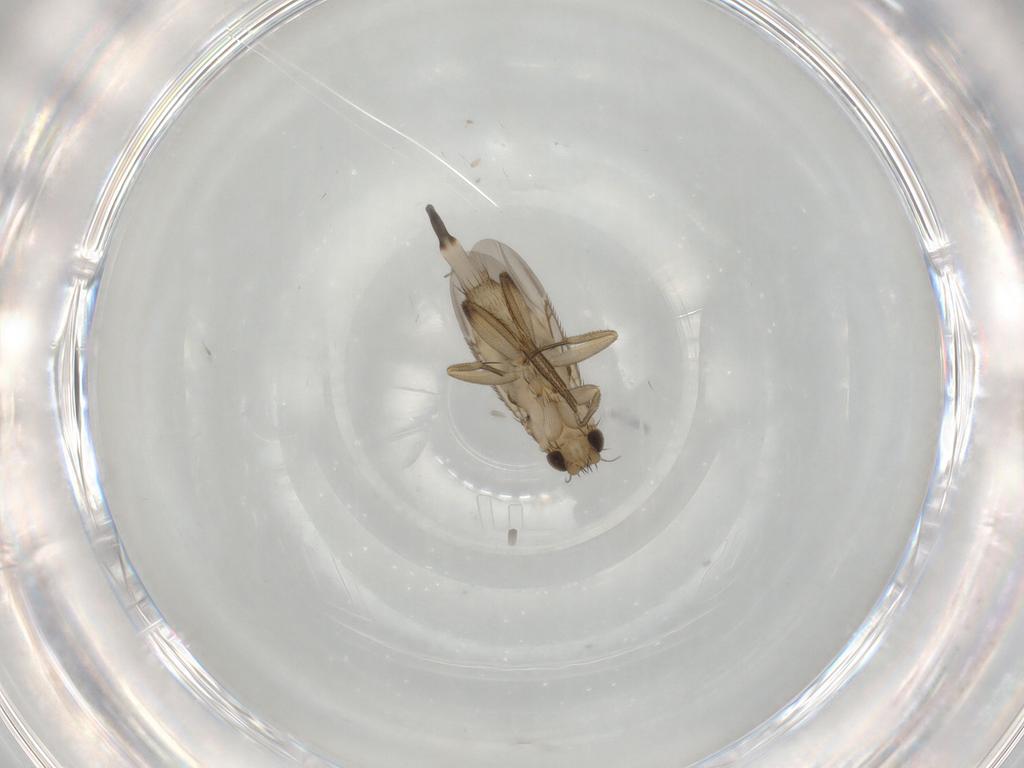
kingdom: Animalia
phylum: Arthropoda
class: Insecta
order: Diptera
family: Phoridae
